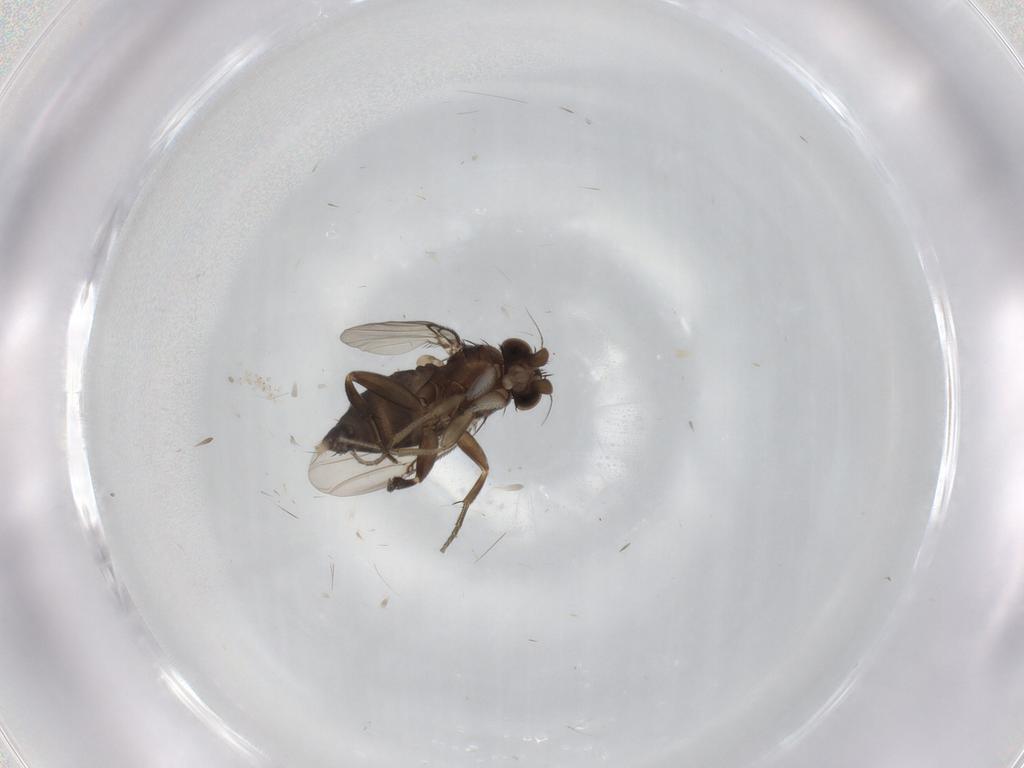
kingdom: Animalia
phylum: Arthropoda
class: Insecta
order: Diptera
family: Phoridae
